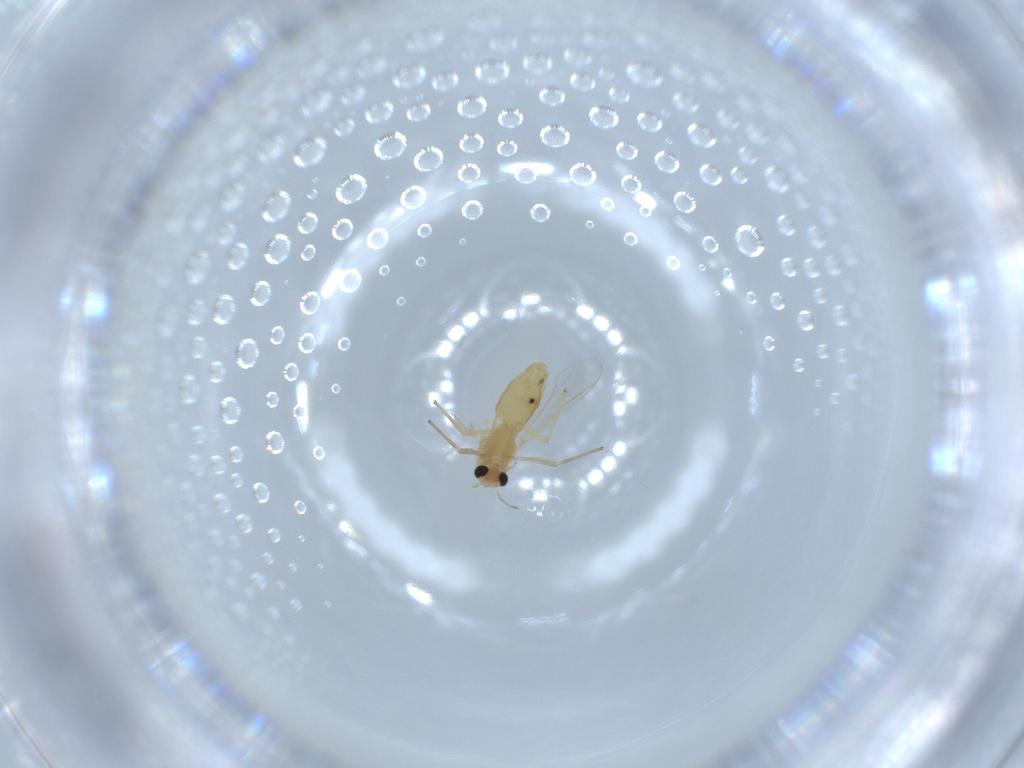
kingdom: Animalia
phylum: Arthropoda
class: Insecta
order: Diptera
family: Chironomidae
